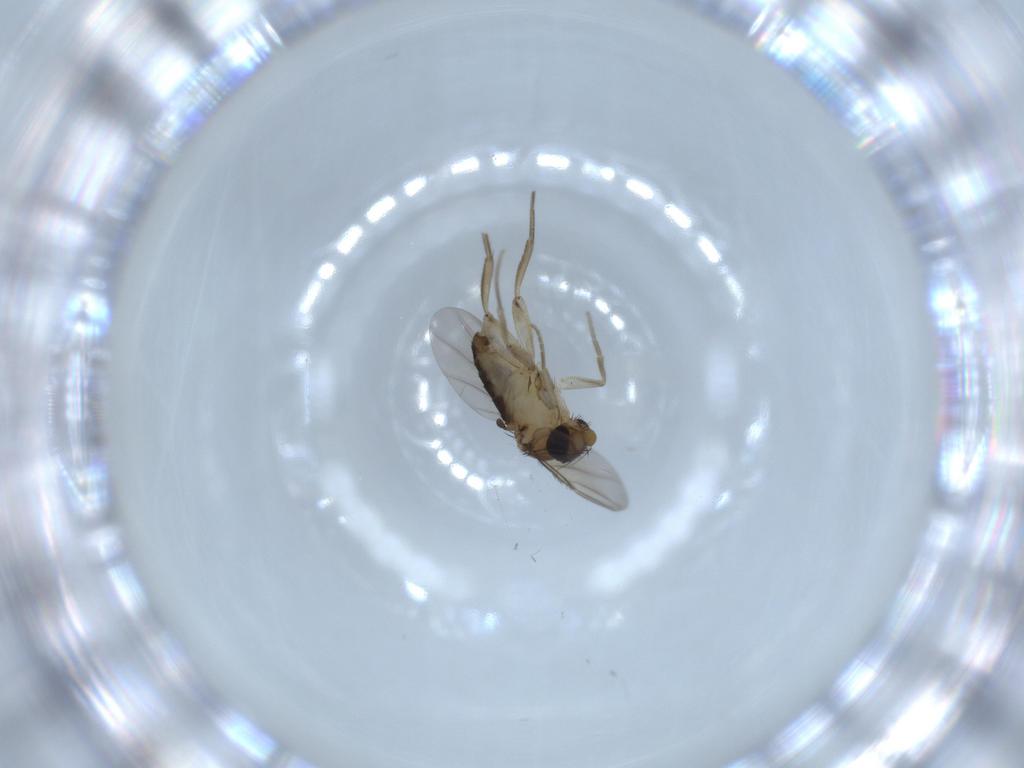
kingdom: Animalia
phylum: Arthropoda
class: Insecta
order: Diptera
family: Phoridae
